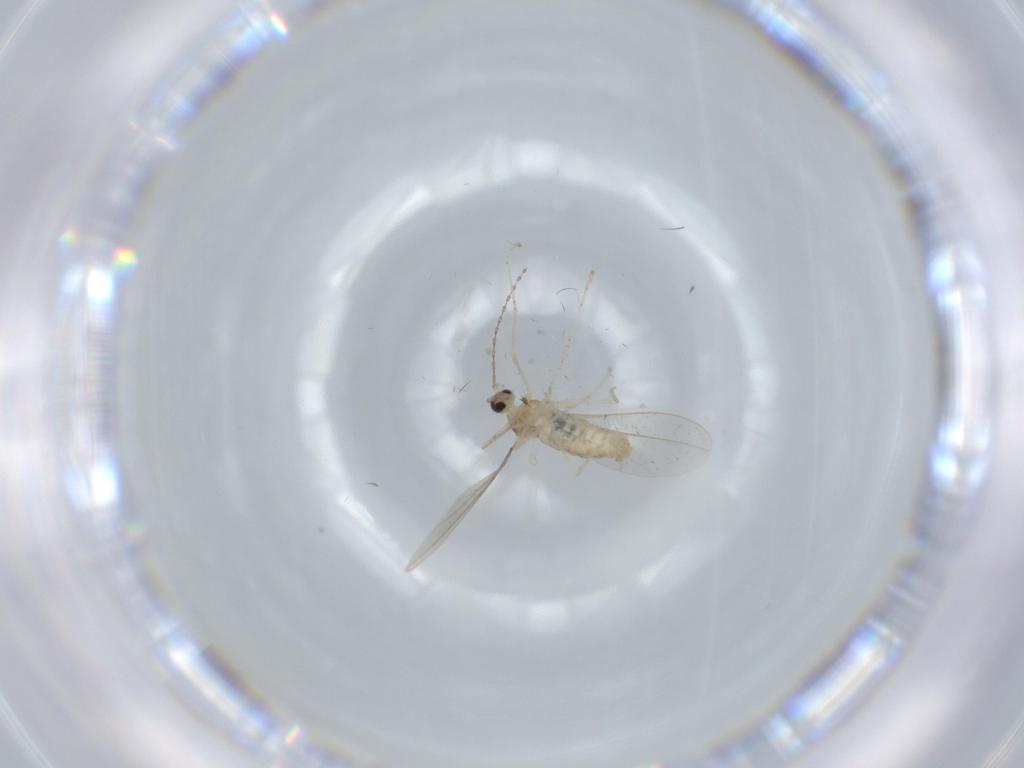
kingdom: Animalia
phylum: Arthropoda
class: Insecta
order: Diptera
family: Cecidomyiidae
